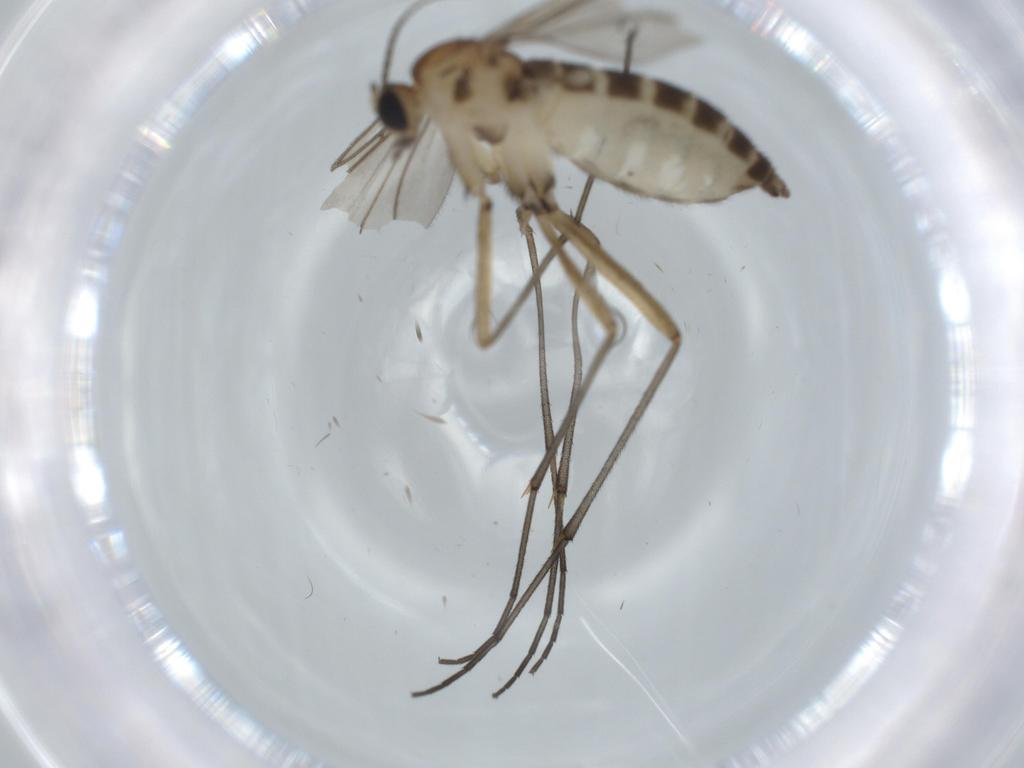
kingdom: Animalia
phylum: Arthropoda
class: Insecta
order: Diptera
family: Sciaridae
